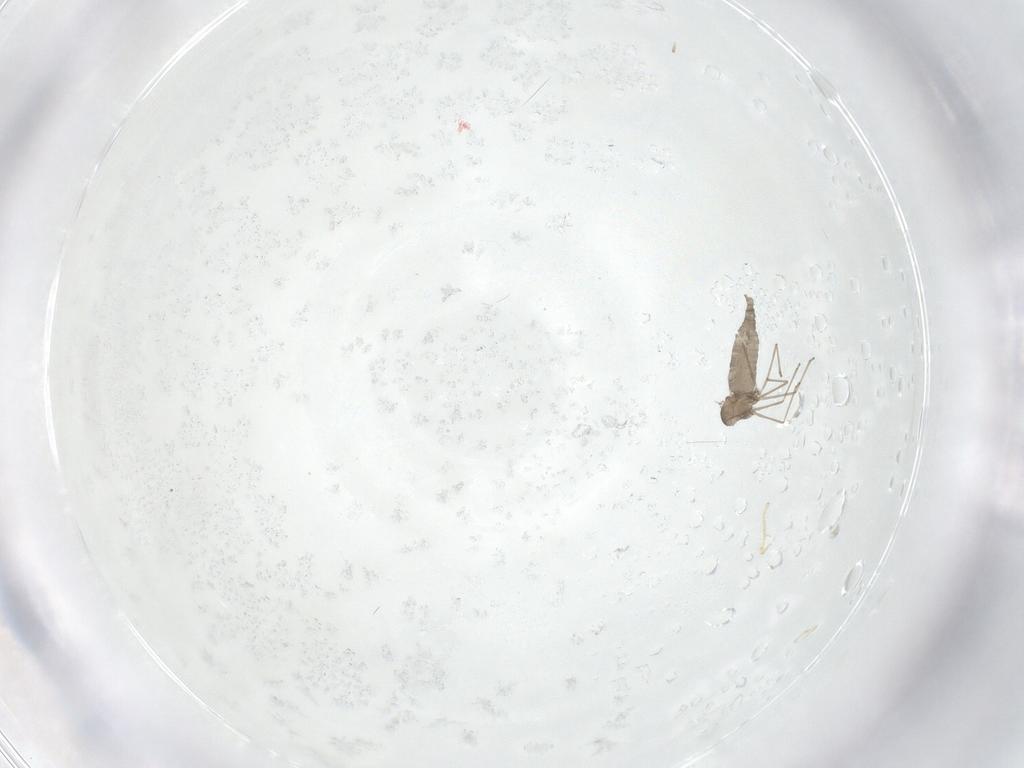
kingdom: Animalia
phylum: Arthropoda
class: Insecta
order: Diptera
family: Cecidomyiidae
